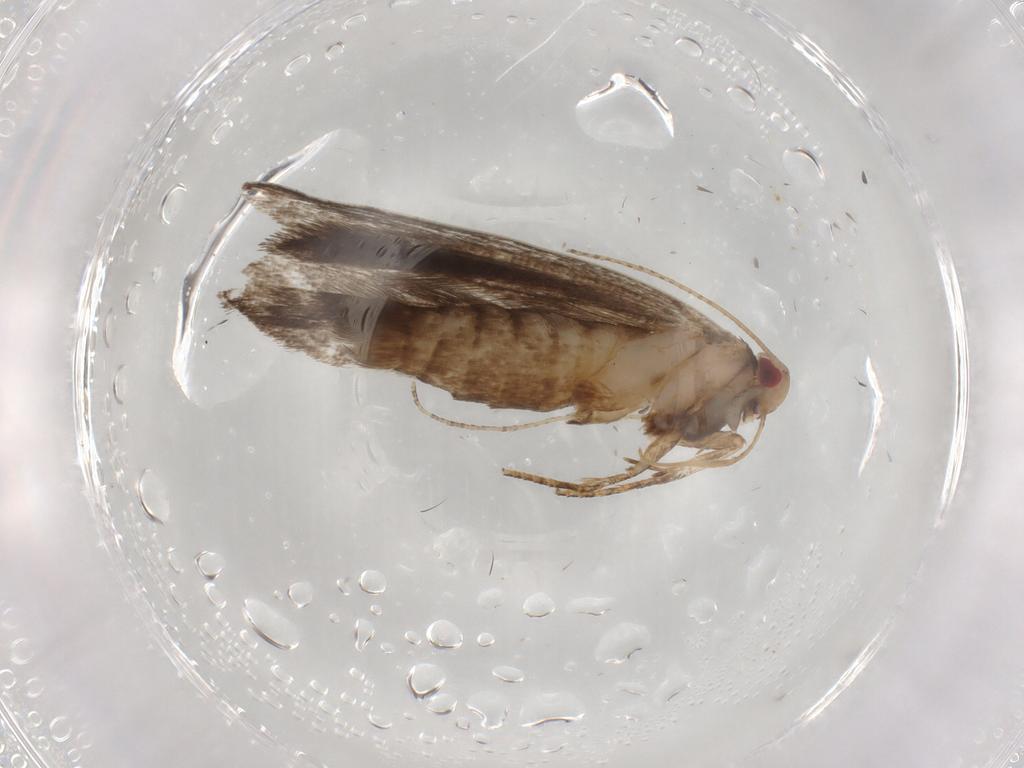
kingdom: Animalia
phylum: Arthropoda
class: Insecta
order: Lepidoptera
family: Gelechiidae
